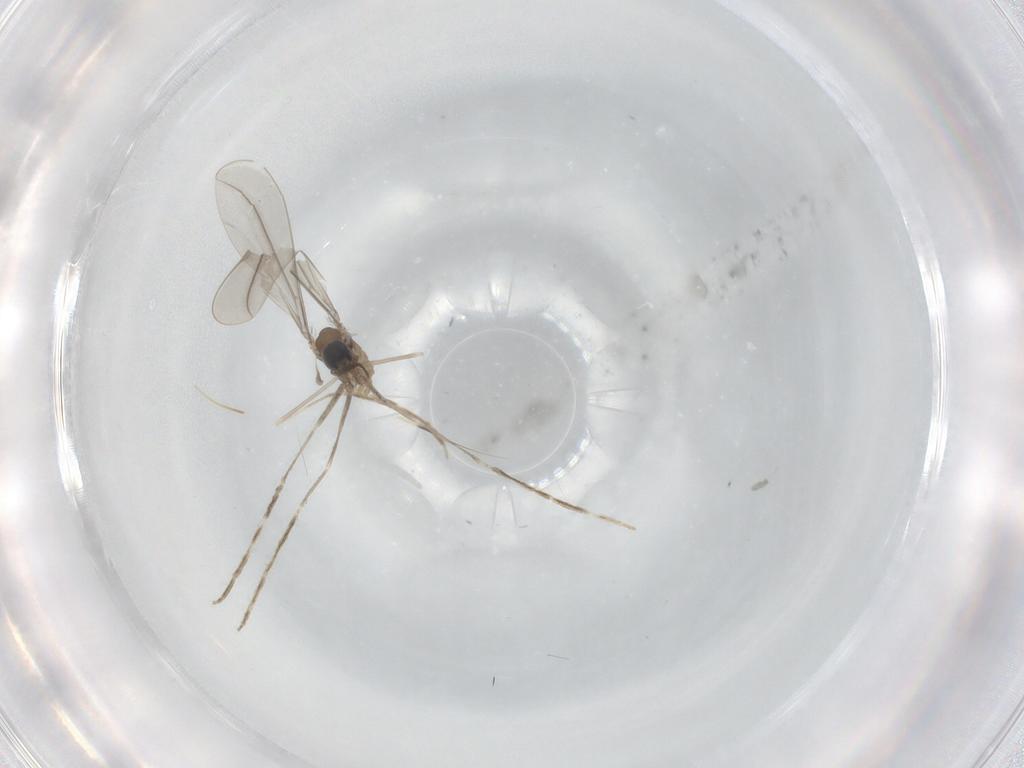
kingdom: Animalia
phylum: Arthropoda
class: Insecta
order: Diptera
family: Cecidomyiidae
